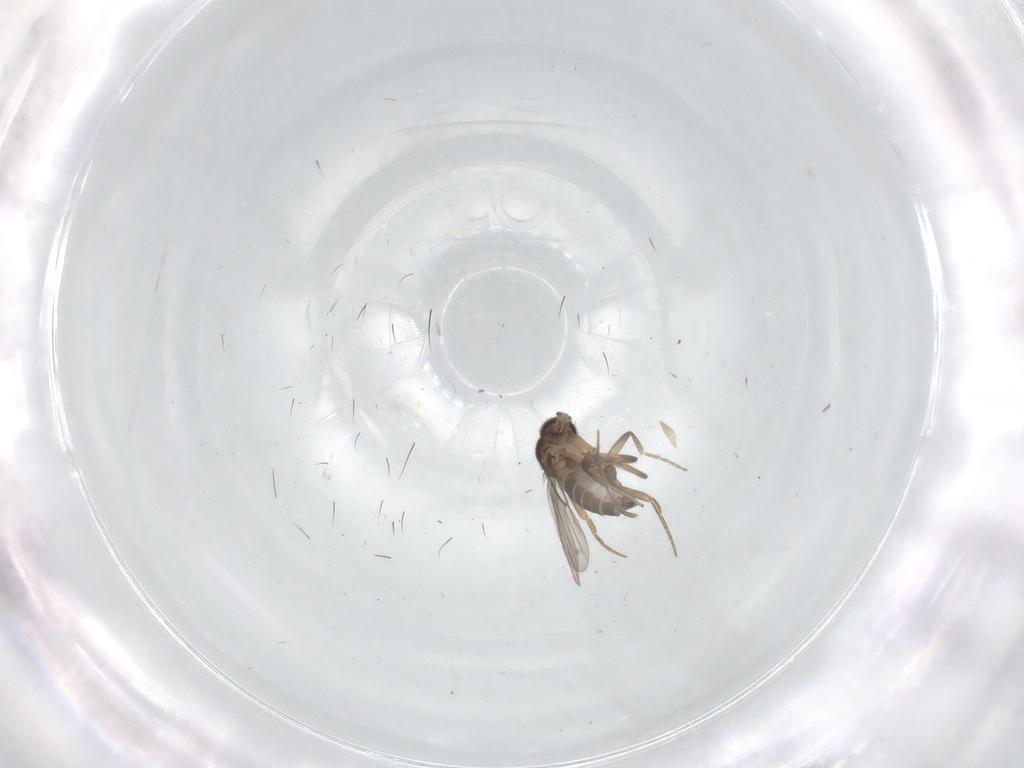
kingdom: Animalia
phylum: Arthropoda
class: Insecta
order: Diptera
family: Phoridae
